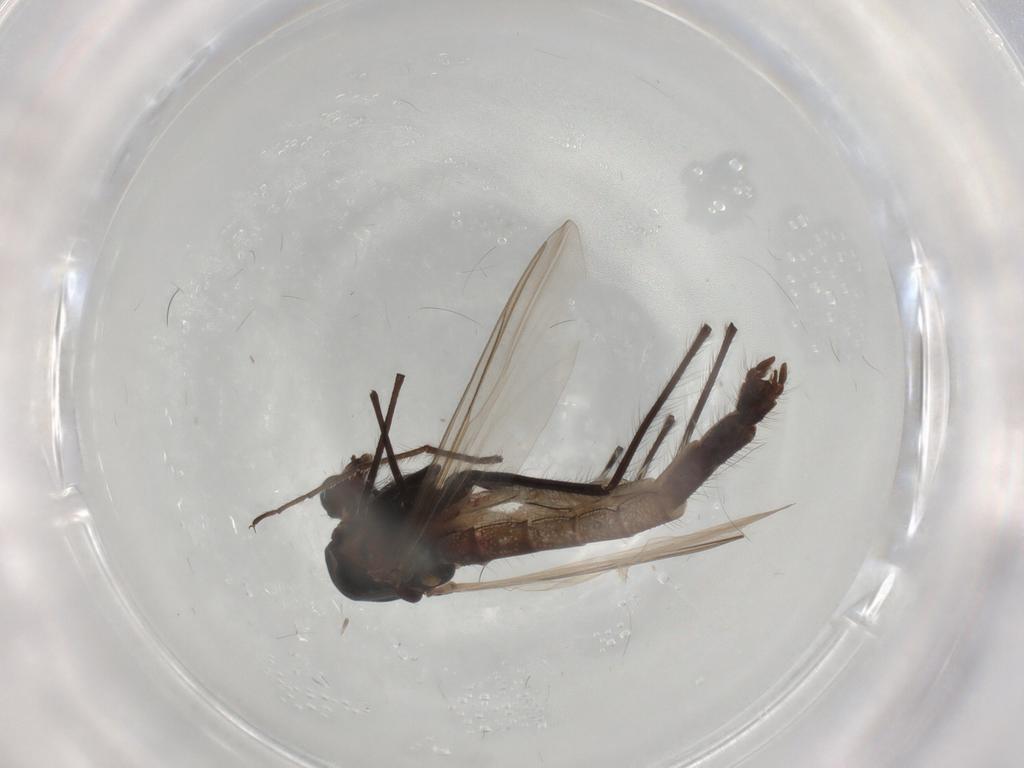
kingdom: Animalia
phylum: Arthropoda
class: Insecta
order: Diptera
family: Chironomidae
